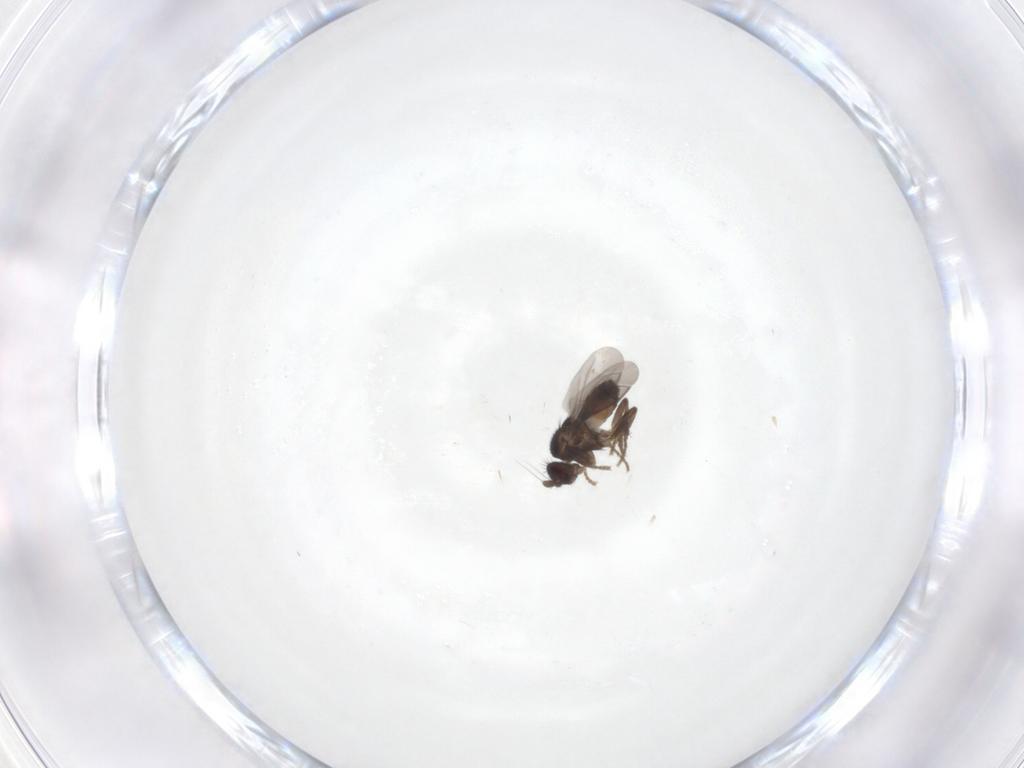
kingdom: Animalia
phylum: Arthropoda
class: Insecta
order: Diptera
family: Sphaeroceridae
